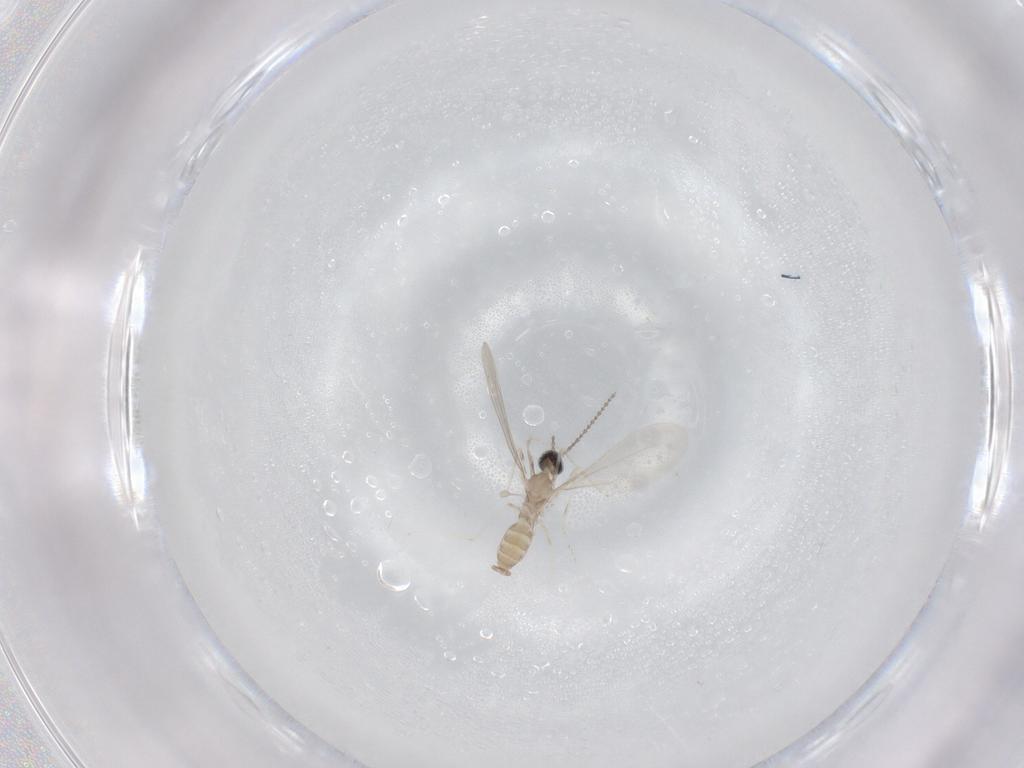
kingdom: Animalia
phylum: Arthropoda
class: Insecta
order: Diptera
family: Cecidomyiidae
